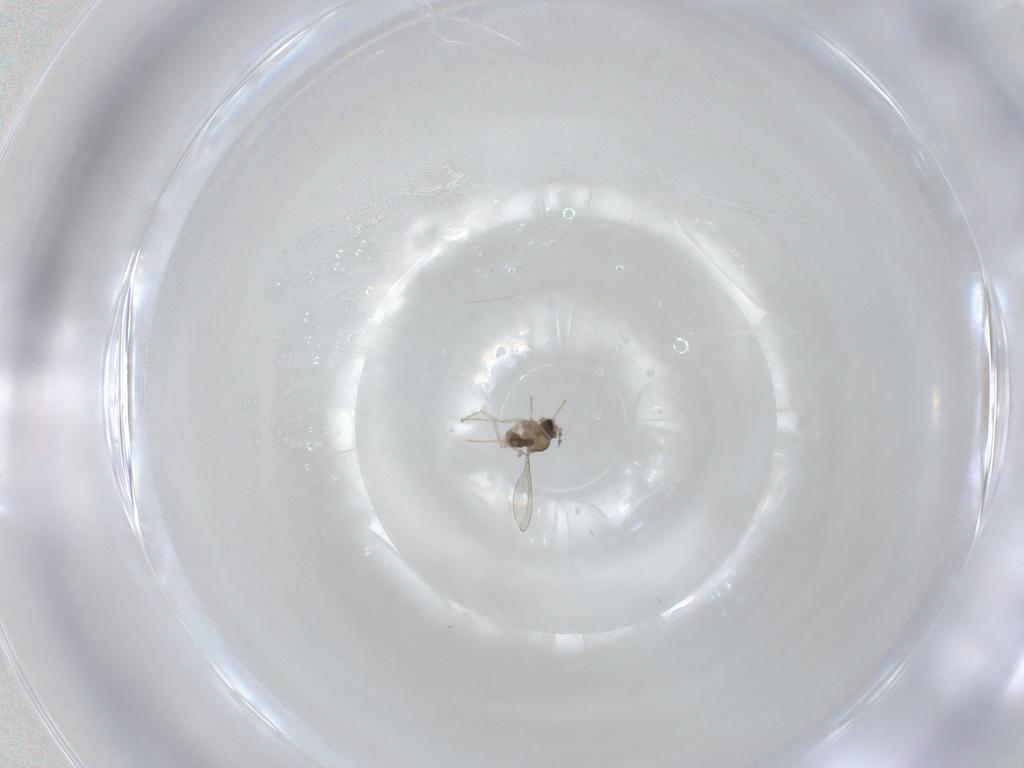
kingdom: Animalia
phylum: Arthropoda
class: Insecta
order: Diptera
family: Cecidomyiidae
